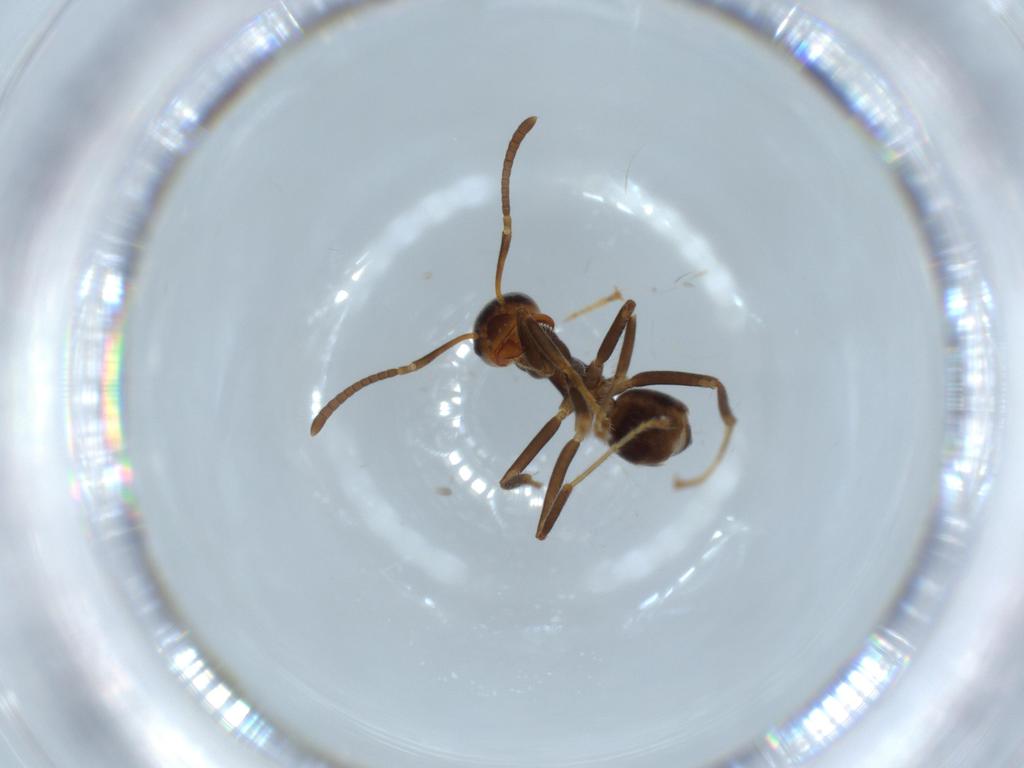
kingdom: Animalia
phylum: Arthropoda
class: Insecta
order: Hymenoptera
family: Formicidae
